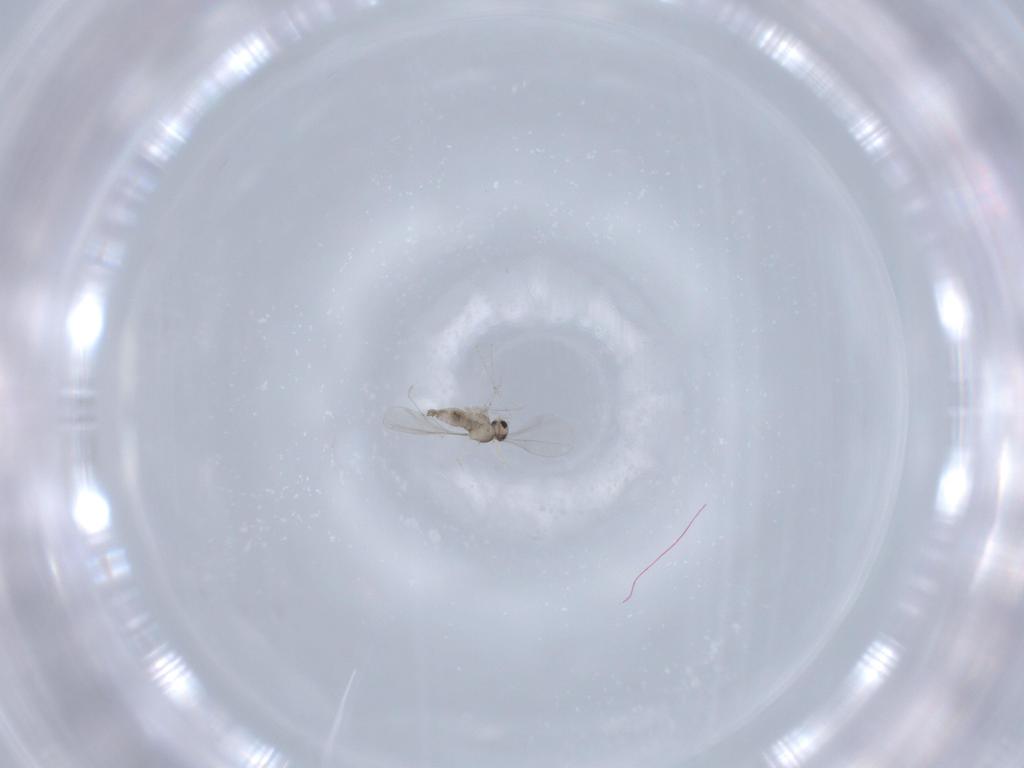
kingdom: Animalia
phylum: Arthropoda
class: Insecta
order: Diptera
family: Cecidomyiidae
